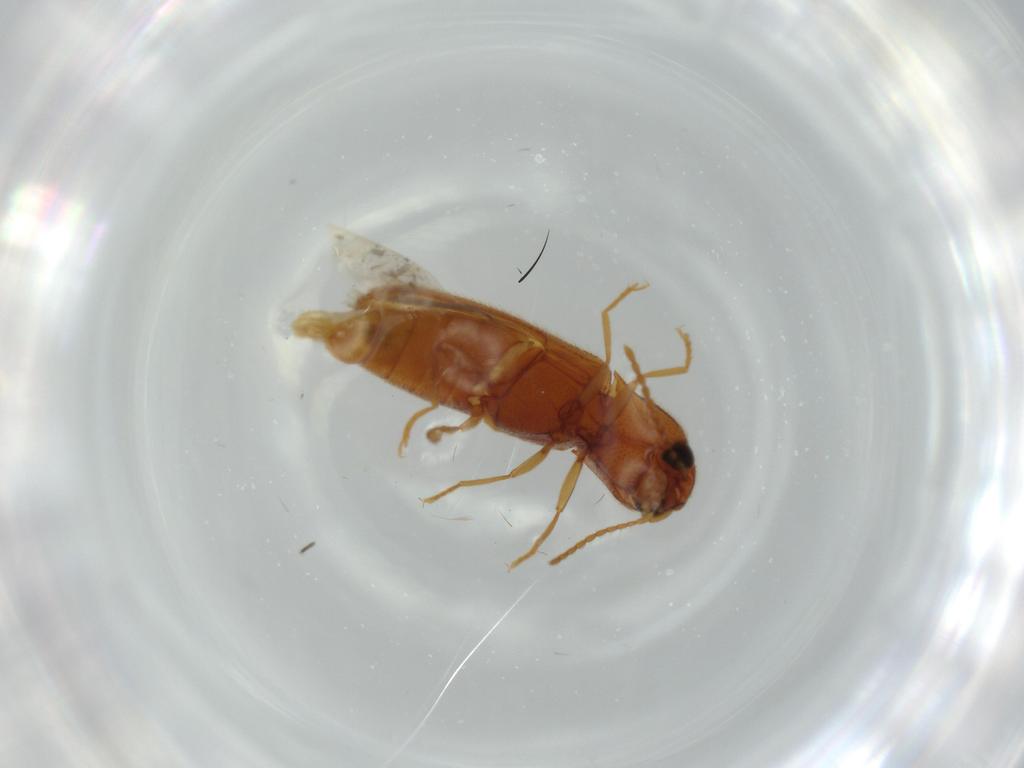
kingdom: Animalia
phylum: Arthropoda
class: Insecta
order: Coleoptera
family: Elateridae
